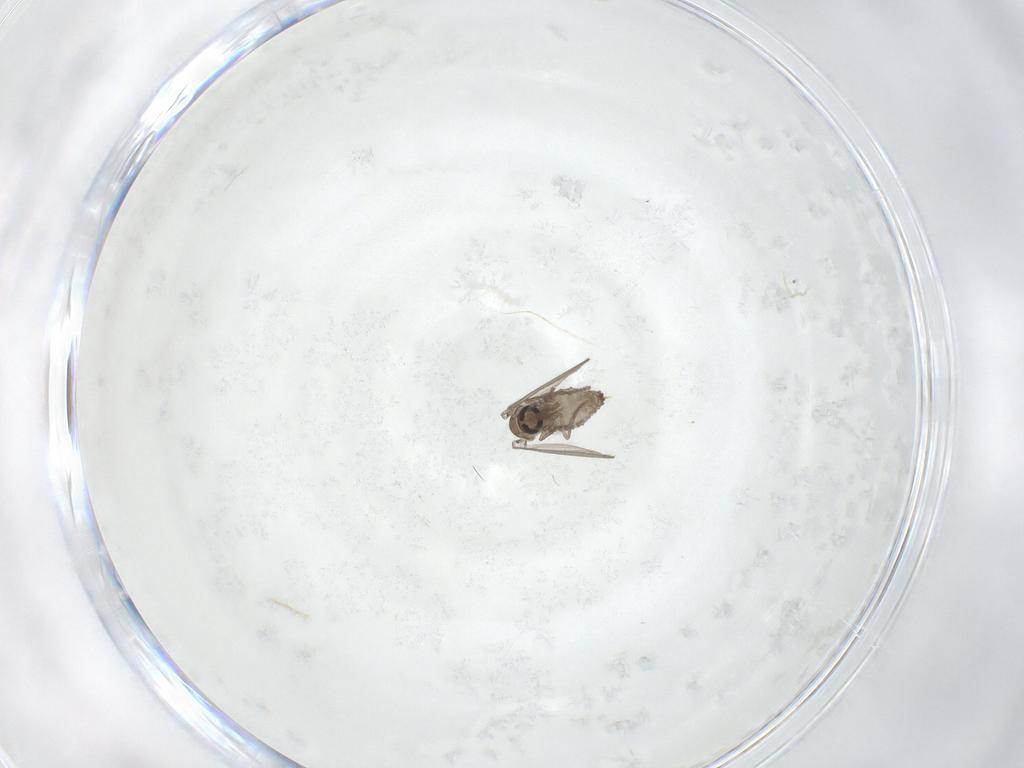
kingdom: Animalia
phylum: Arthropoda
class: Insecta
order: Diptera
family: Psychodidae
